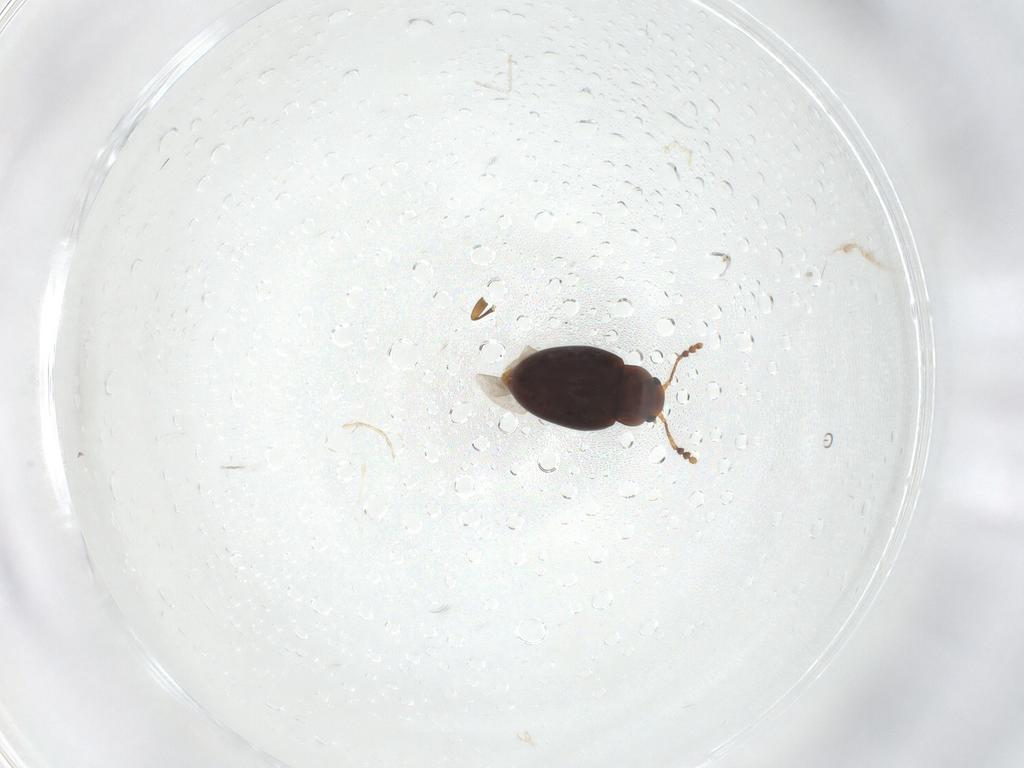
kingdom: Animalia
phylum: Arthropoda
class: Insecta
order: Coleoptera
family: Erotylidae
